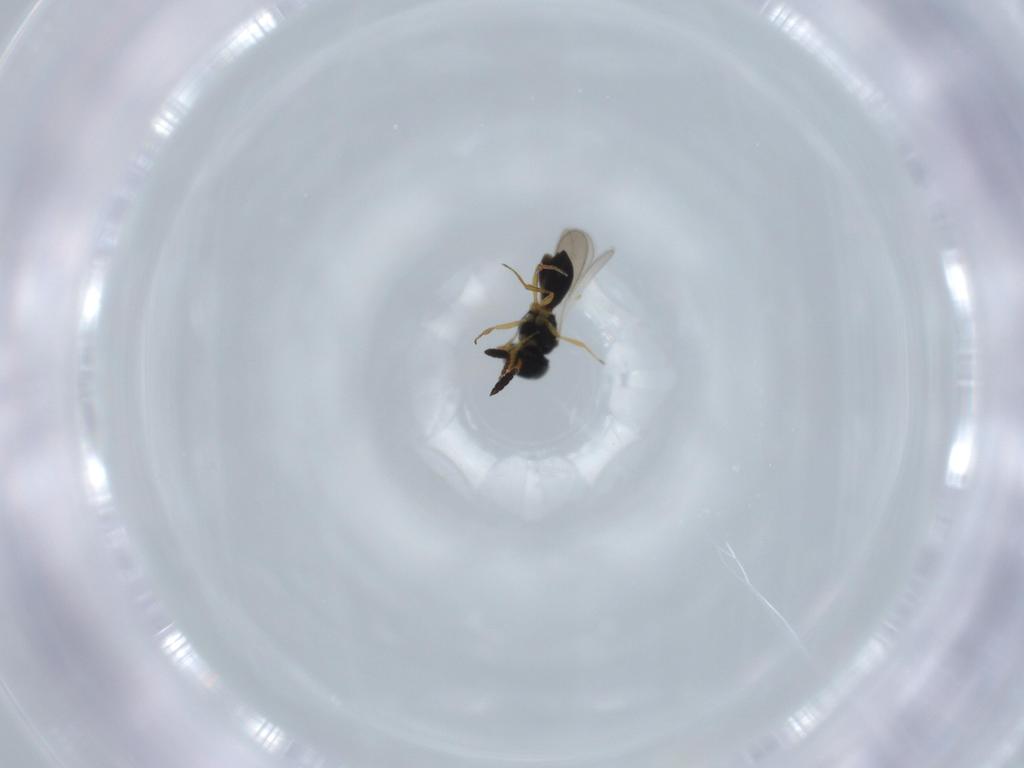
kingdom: Animalia
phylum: Arthropoda
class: Insecta
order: Hymenoptera
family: Scelionidae
